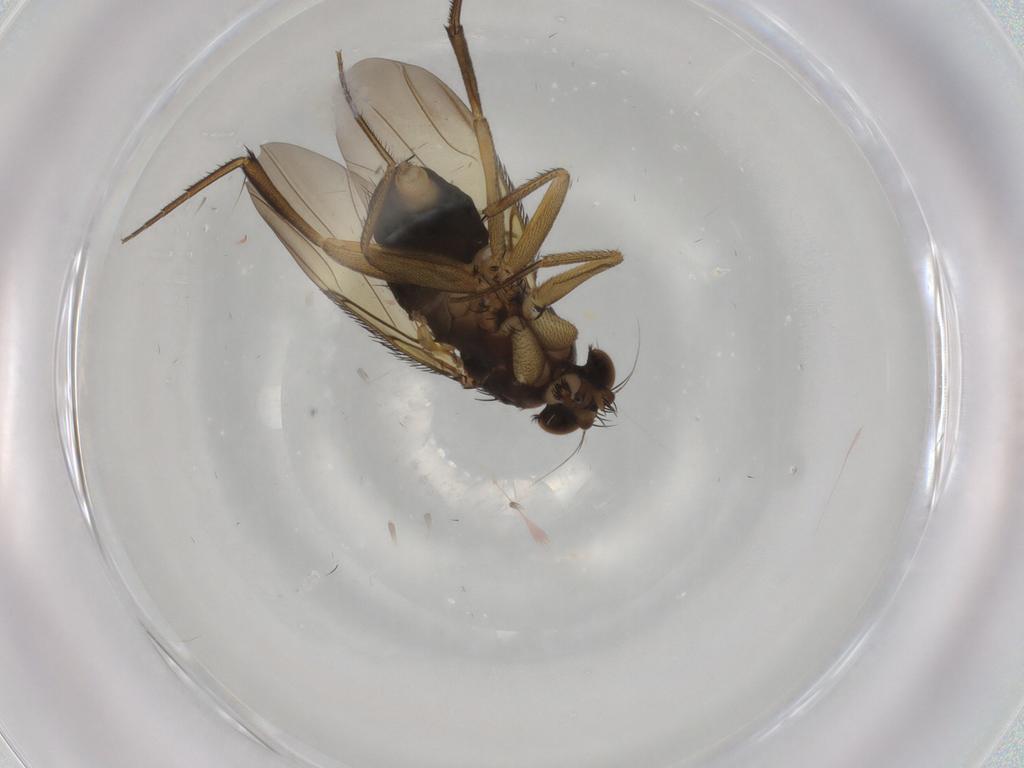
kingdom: Animalia
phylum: Arthropoda
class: Insecta
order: Diptera
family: Phoridae
